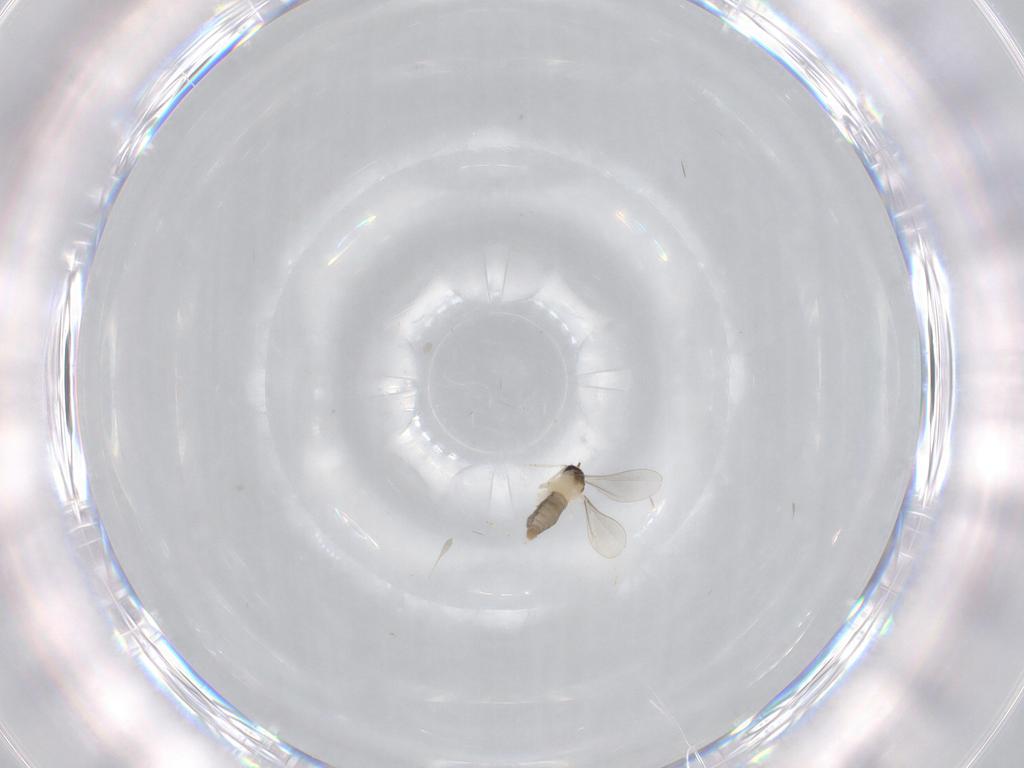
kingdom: Animalia
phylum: Arthropoda
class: Insecta
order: Diptera
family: Cecidomyiidae
